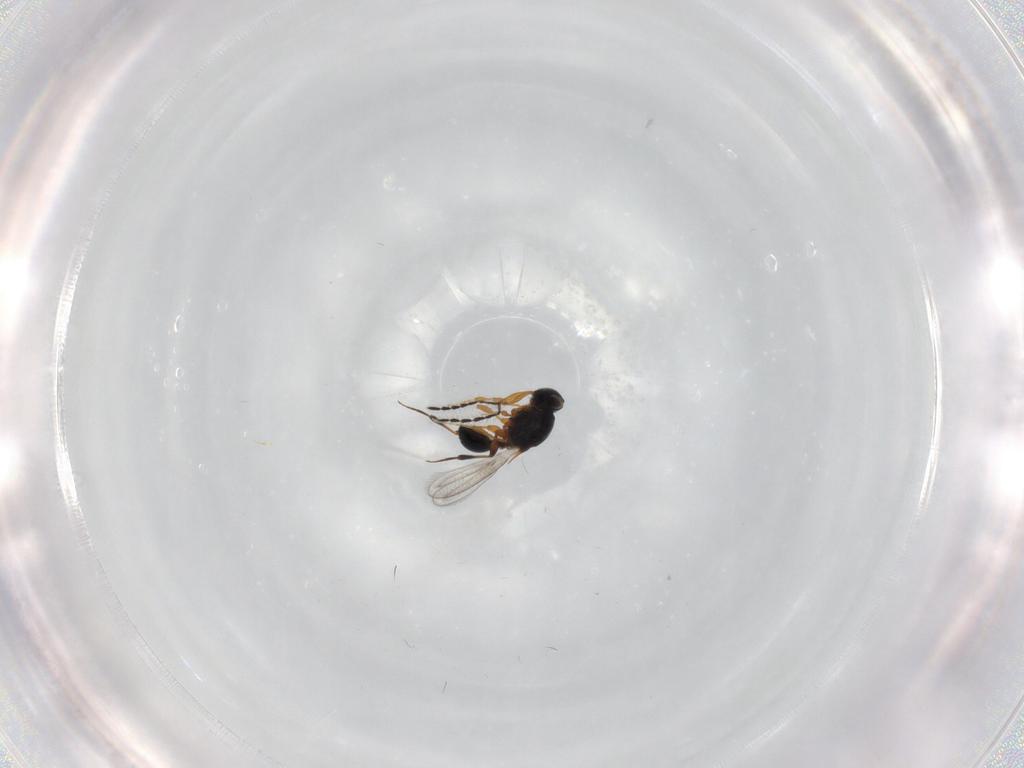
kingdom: Animalia
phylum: Arthropoda
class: Insecta
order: Hymenoptera
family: Platygastridae
